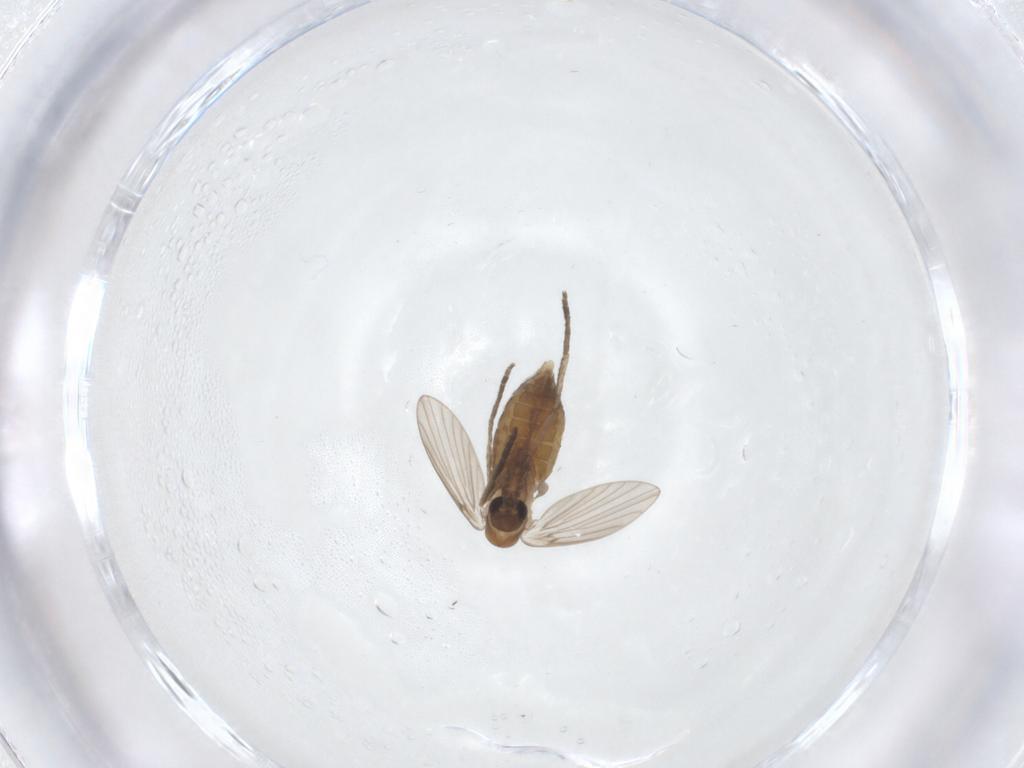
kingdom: Animalia
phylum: Arthropoda
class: Insecta
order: Diptera
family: Psychodidae
